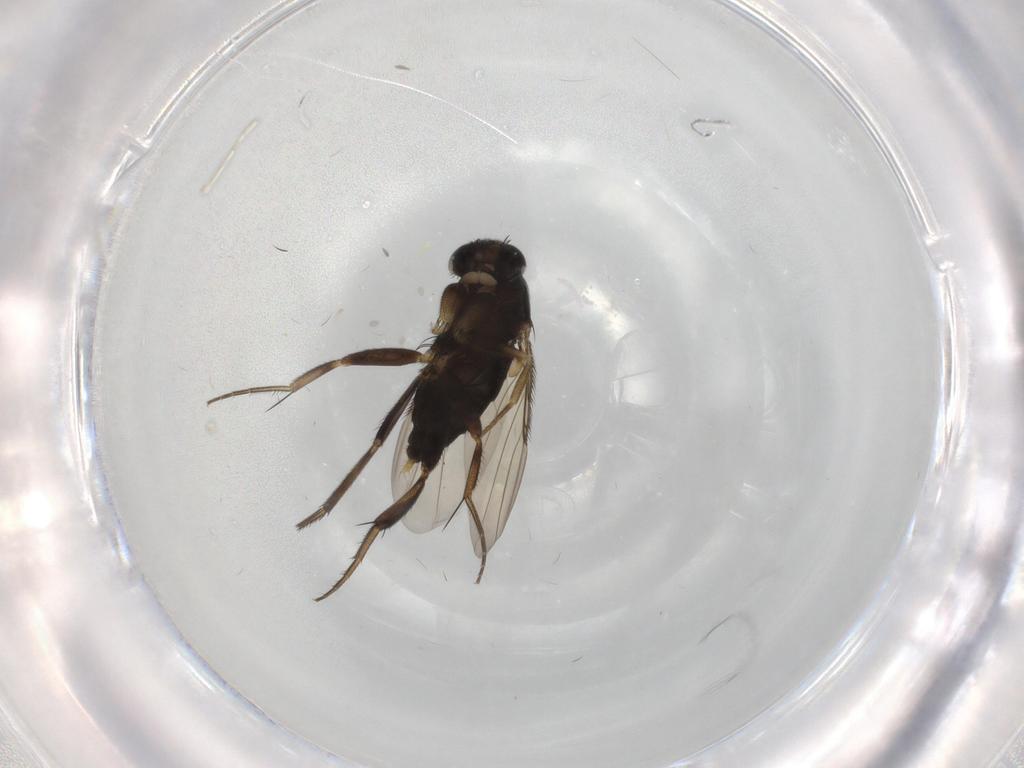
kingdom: Animalia
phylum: Arthropoda
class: Insecta
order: Diptera
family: Phoridae
